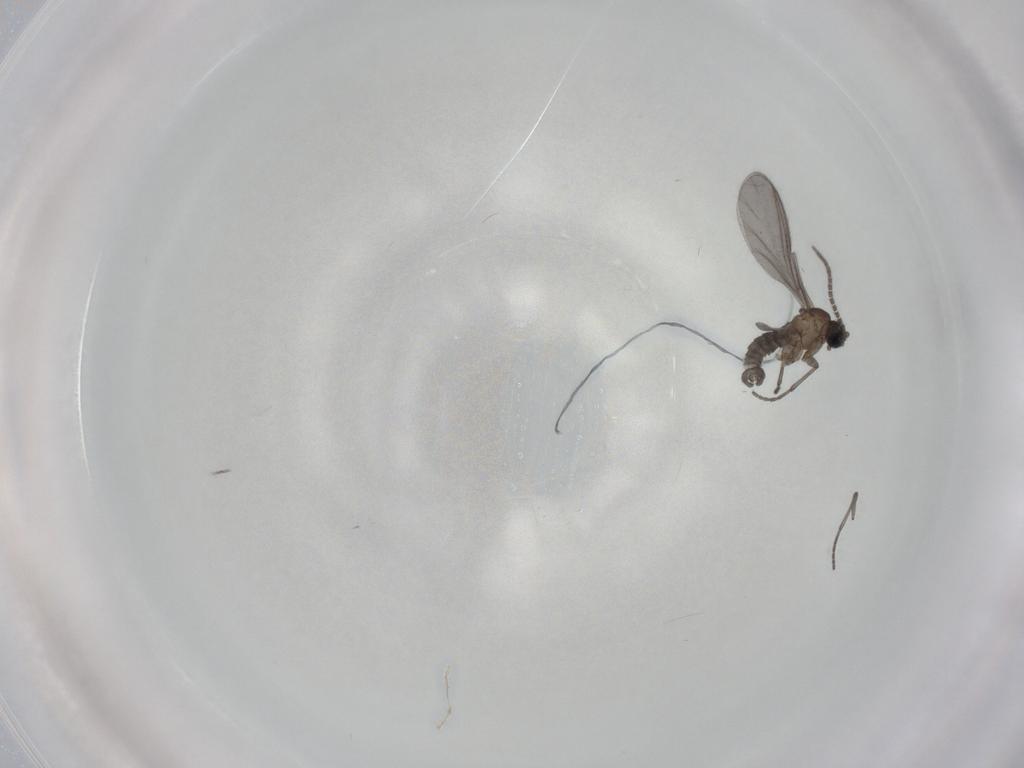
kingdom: Animalia
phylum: Arthropoda
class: Insecta
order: Diptera
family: Sciaridae
